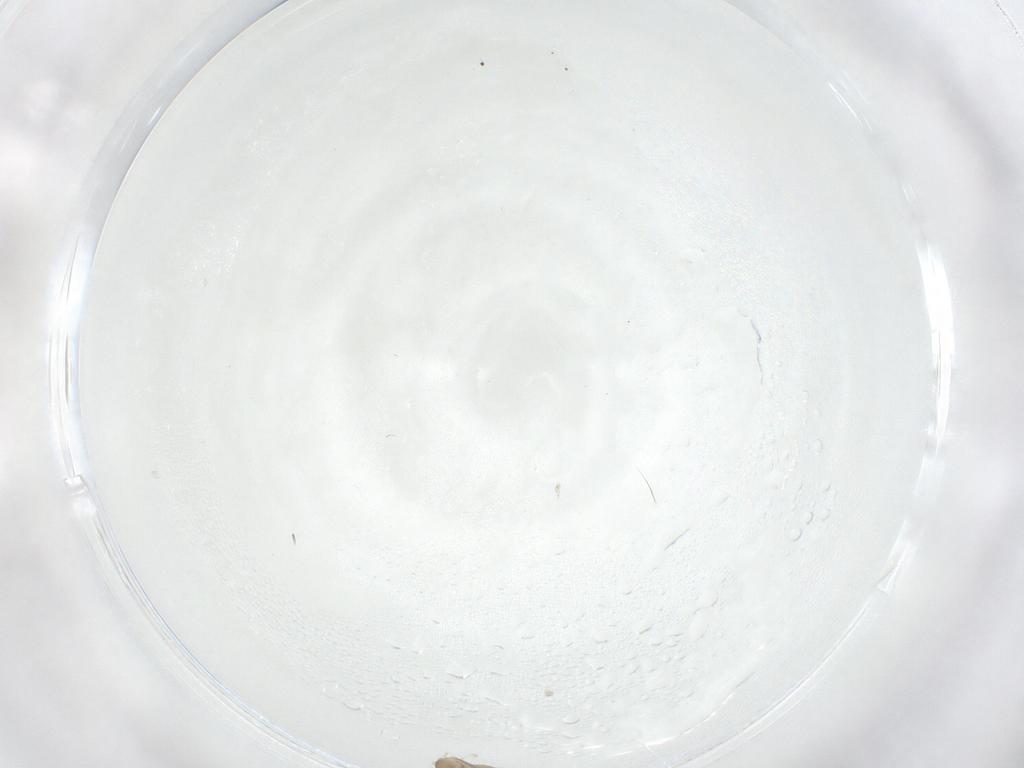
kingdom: Animalia
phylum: Arthropoda
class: Insecta
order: Diptera
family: Cecidomyiidae
